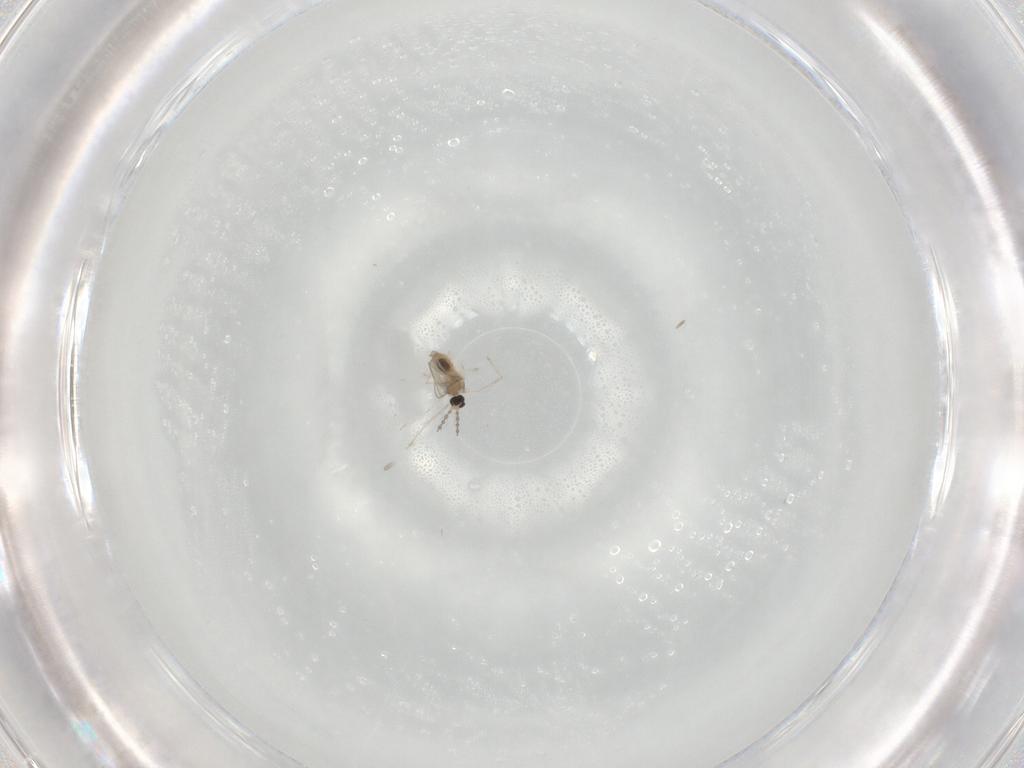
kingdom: Animalia
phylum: Arthropoda
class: Insecta
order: Diptera
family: Cecidomyiidae
